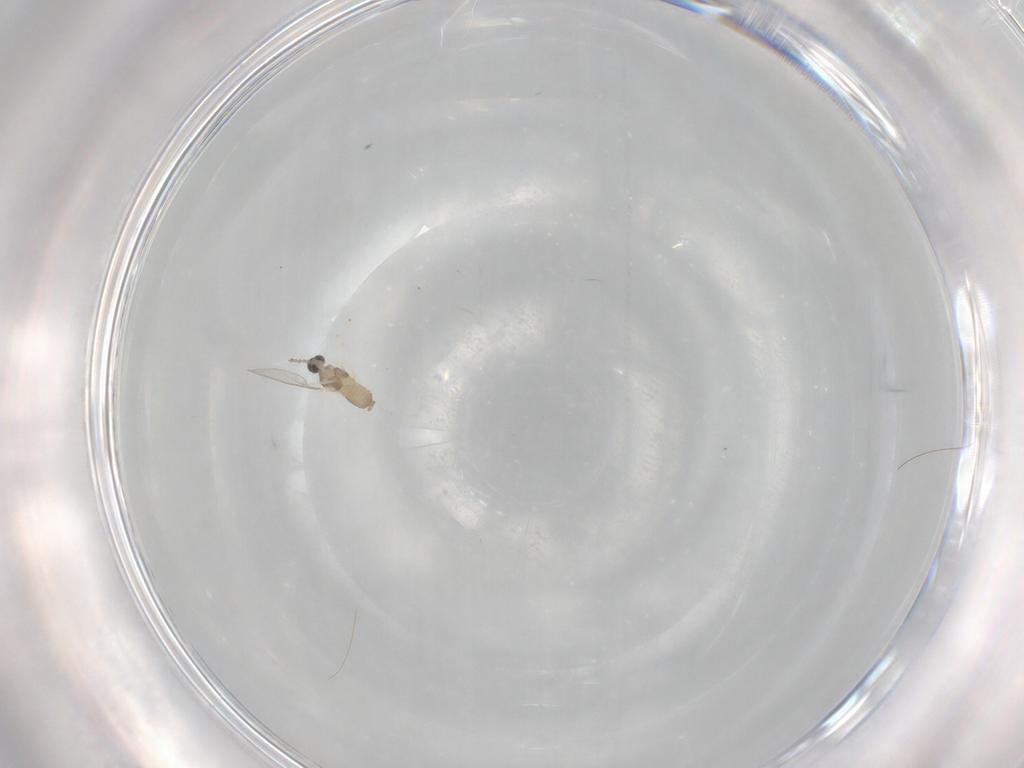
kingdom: Animalia
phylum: Arthropoda
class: Insecta
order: Diptera
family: Cecidomyiidae
